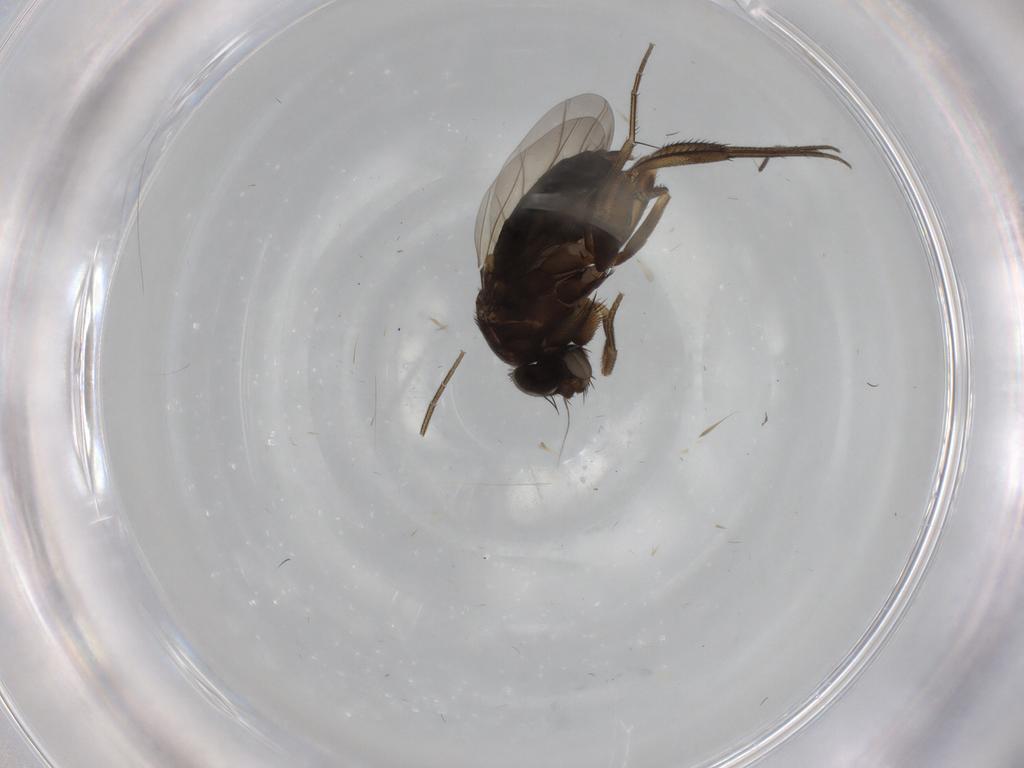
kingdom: Animalia
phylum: Arthropoda
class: Insecta
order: Diptera
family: Phoridae
